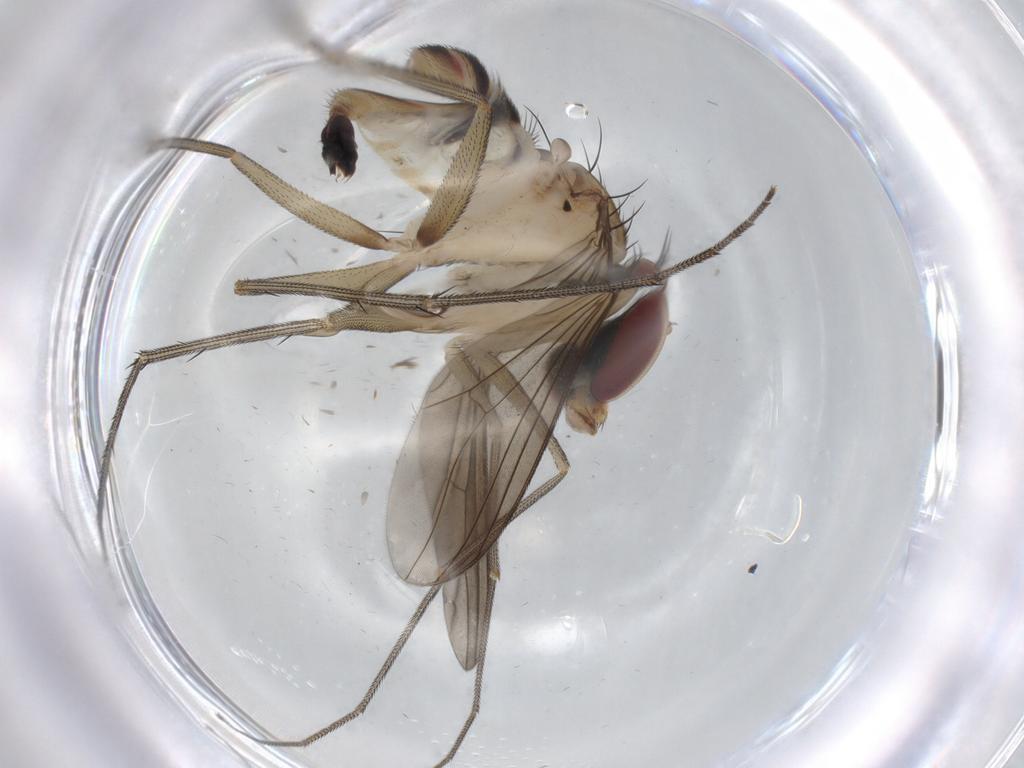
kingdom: Animalia
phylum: Arthropoda
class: Insecta
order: Diptera
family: Dolichopodidae
